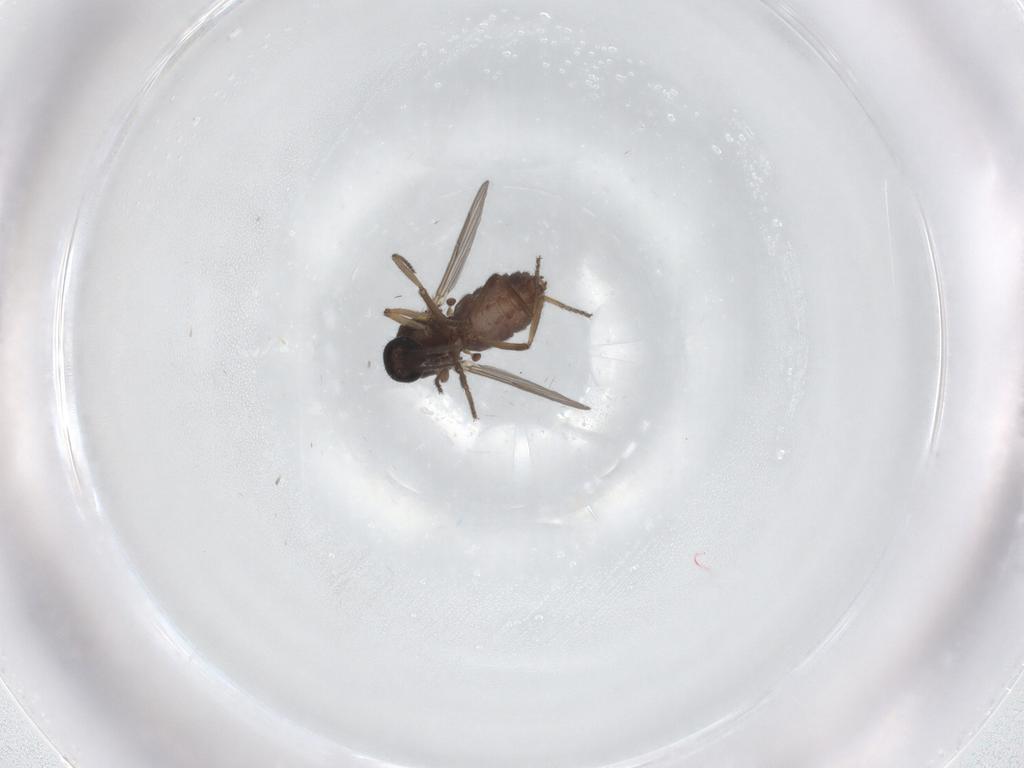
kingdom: Animalia
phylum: Arthropoda
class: Insecta
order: Diptera
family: Ceratopogonidae
